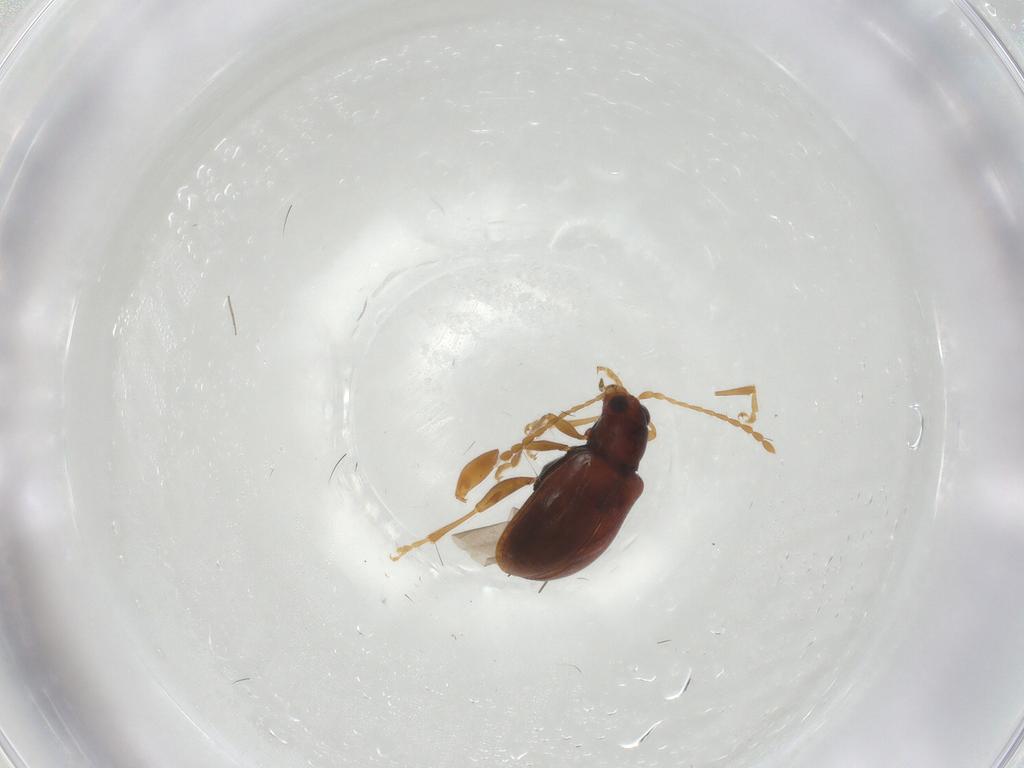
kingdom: Animalia
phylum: Arthropoda
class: Insecta
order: Coleoptera
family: Chrysomelidae
